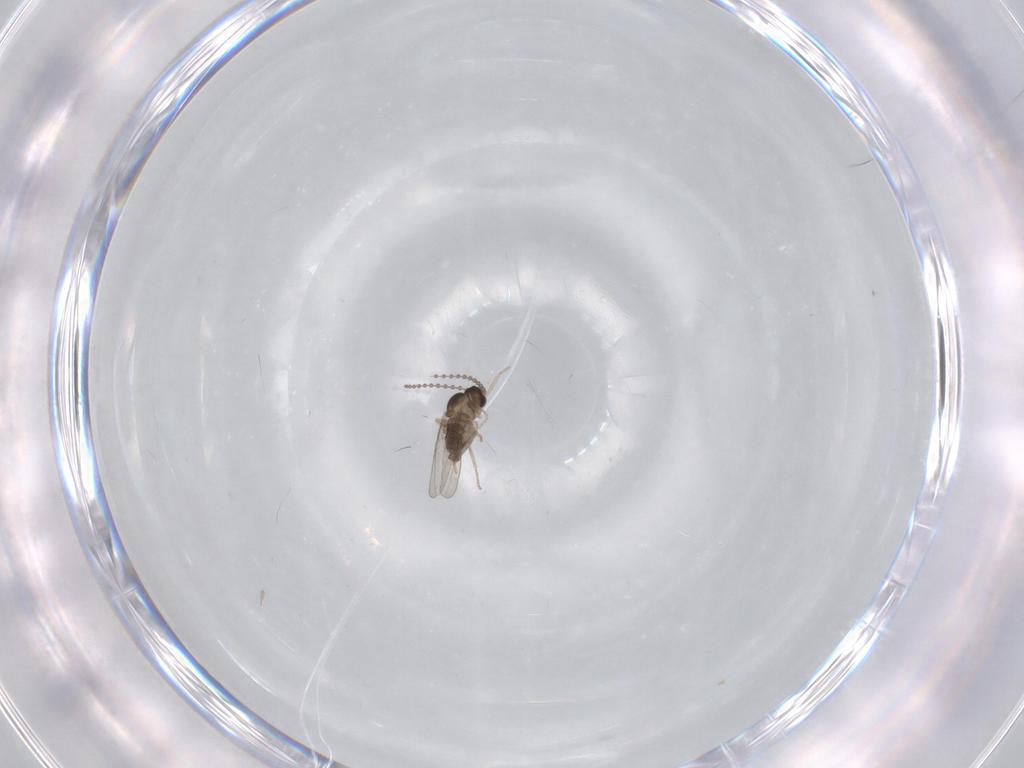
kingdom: Animalia
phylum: Arthropoda
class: Insecta
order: Diptera
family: Cecidomyiidae
